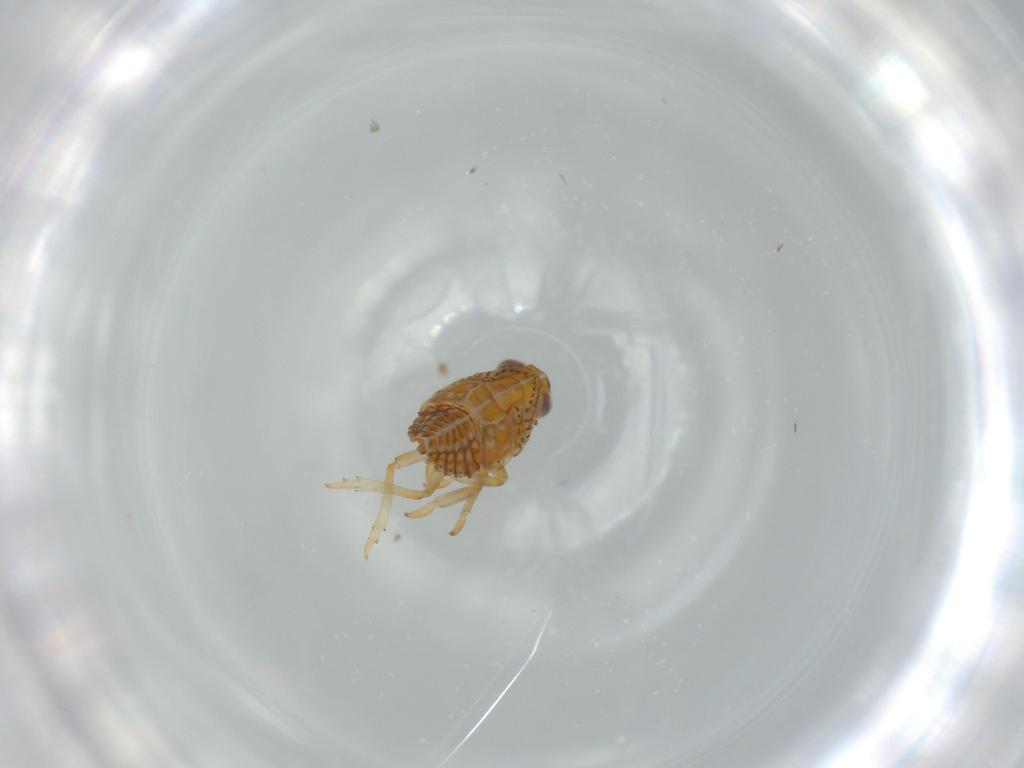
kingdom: Animalia
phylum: Arthropoda
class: Insecta
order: Hemiptera
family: Issidae
